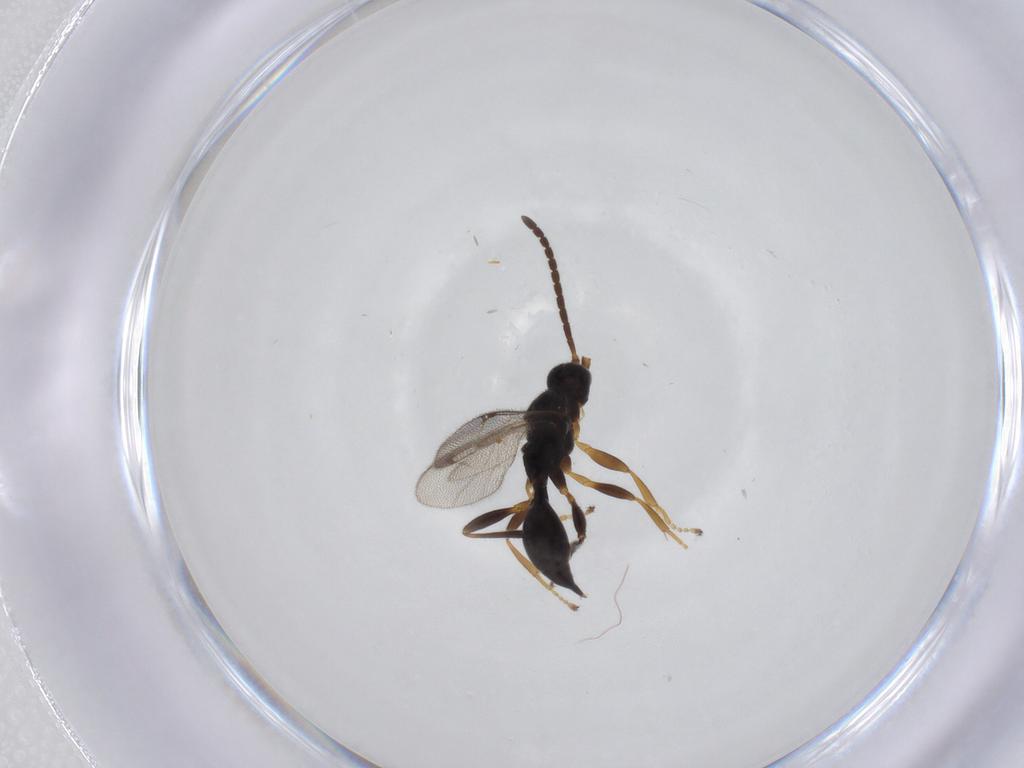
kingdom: Animalia
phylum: Arthropoda
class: Insecta
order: Hymenoptera
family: Proctotrupidae
